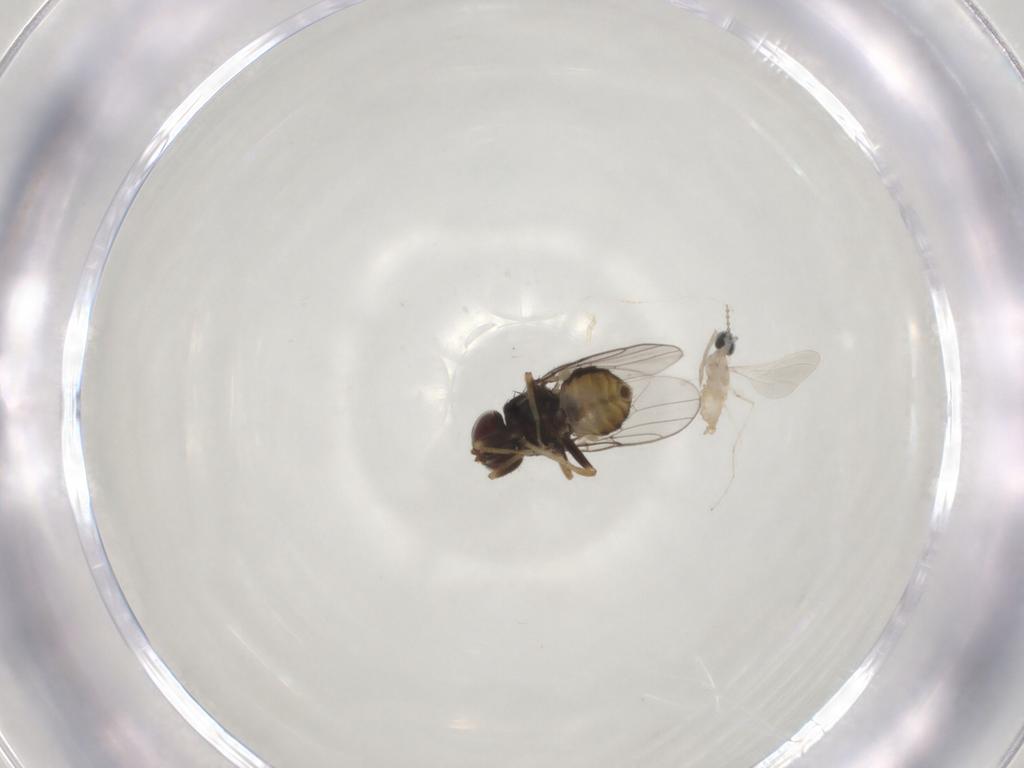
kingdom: Animalia
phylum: Arthropoda
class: Insecta
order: Diptera
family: Chloropidae
